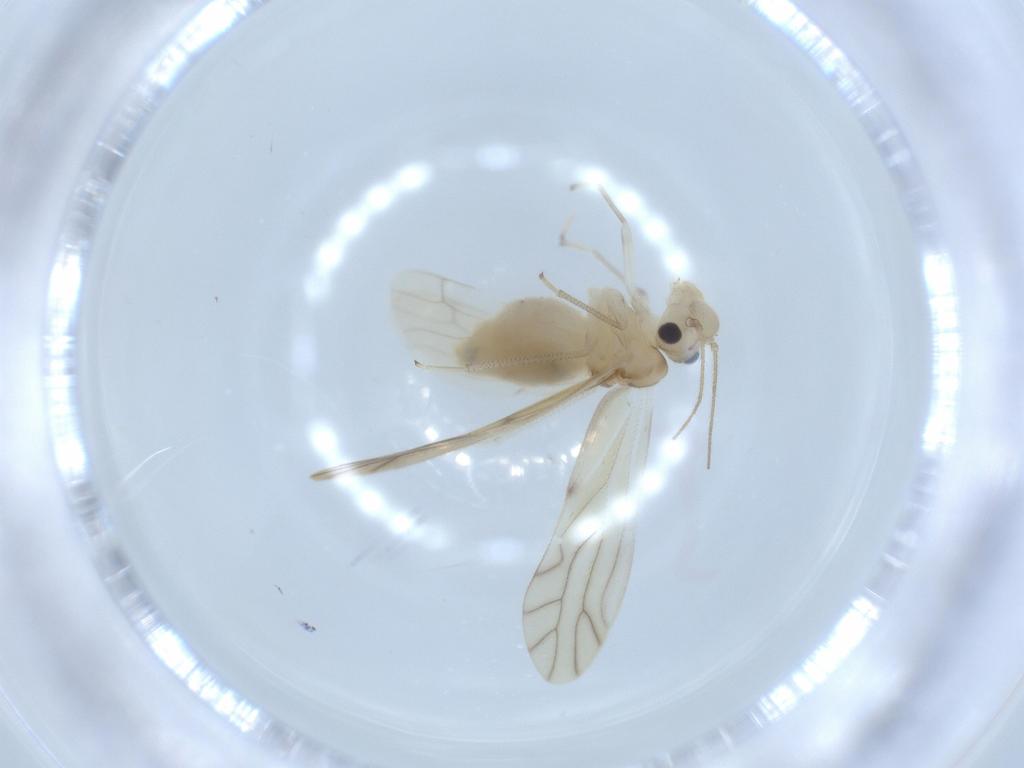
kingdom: Animalia
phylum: Arthropoda
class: Insecta
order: Psocodea
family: Caeciliusidae
